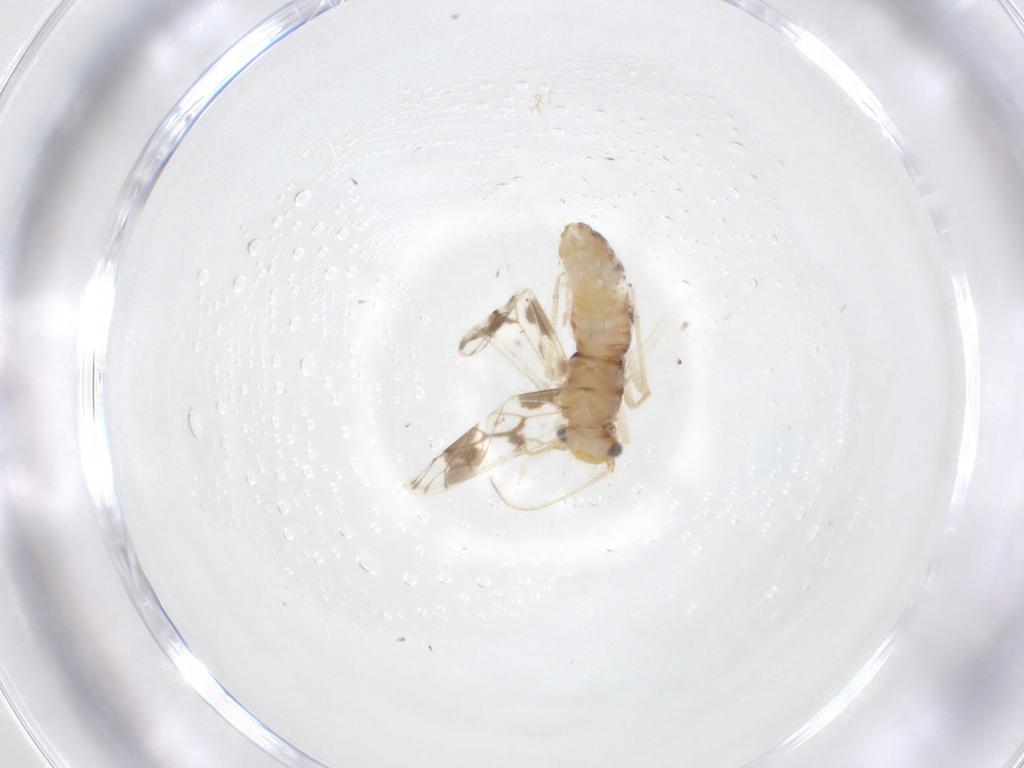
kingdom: Animalia
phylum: Arthropoda
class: Insecta
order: Psocodea
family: Pseudocaeciliidae
